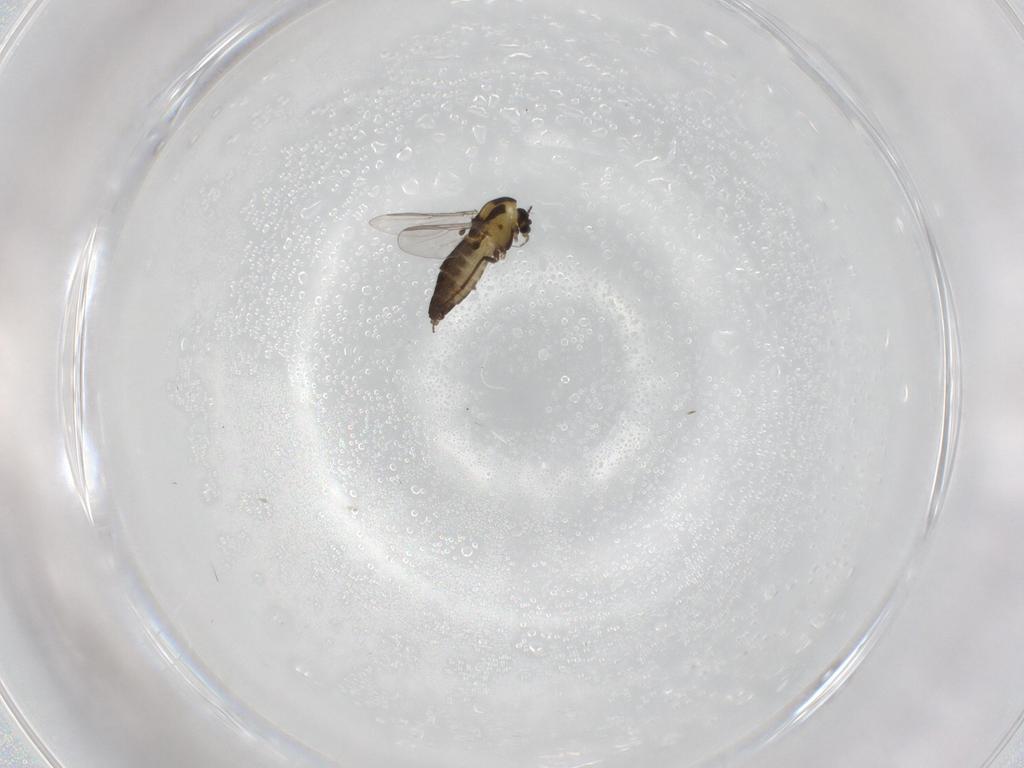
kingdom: Animalia
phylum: Arthropoda
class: Insecta
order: Diptera
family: Chironomidae
